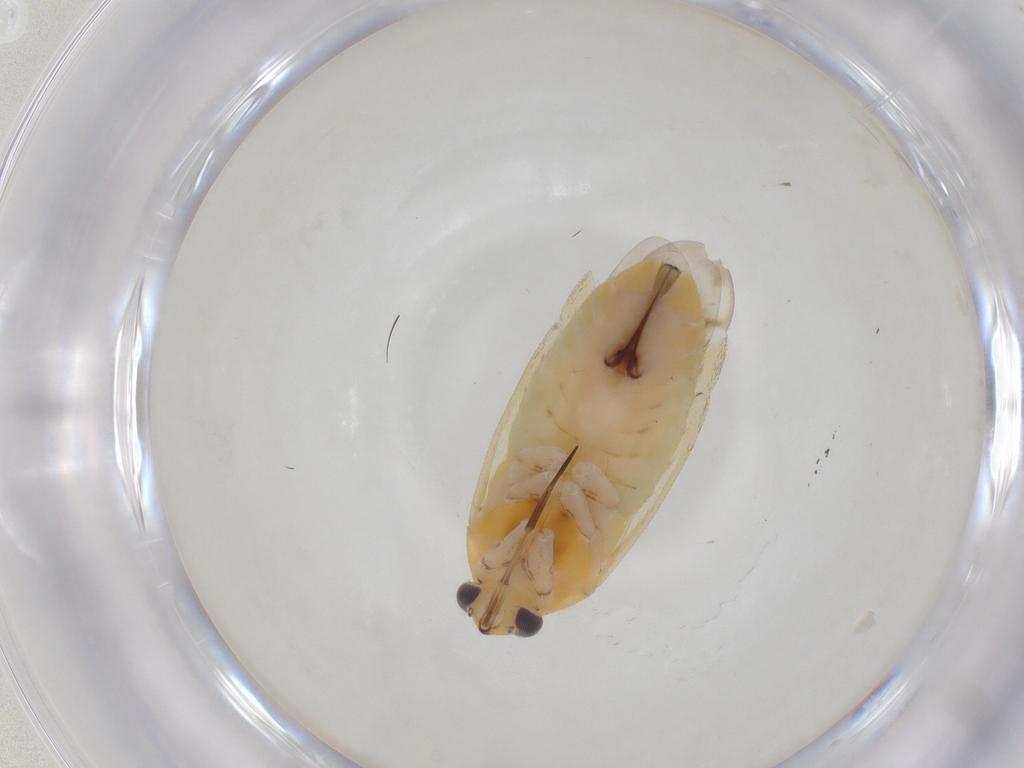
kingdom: Animalia
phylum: Arthropoda
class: Insecta
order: Hemiptera
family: Miridae
